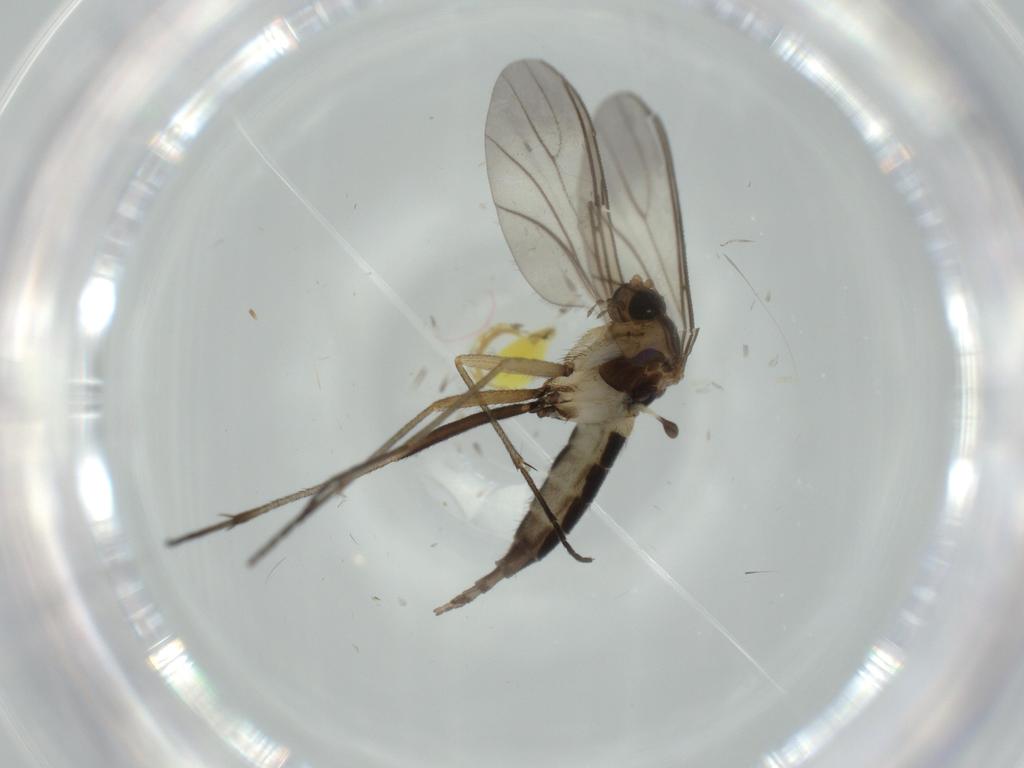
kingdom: Animalia
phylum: Arthropoda
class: Insecta
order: Diptera
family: Sciaridae
